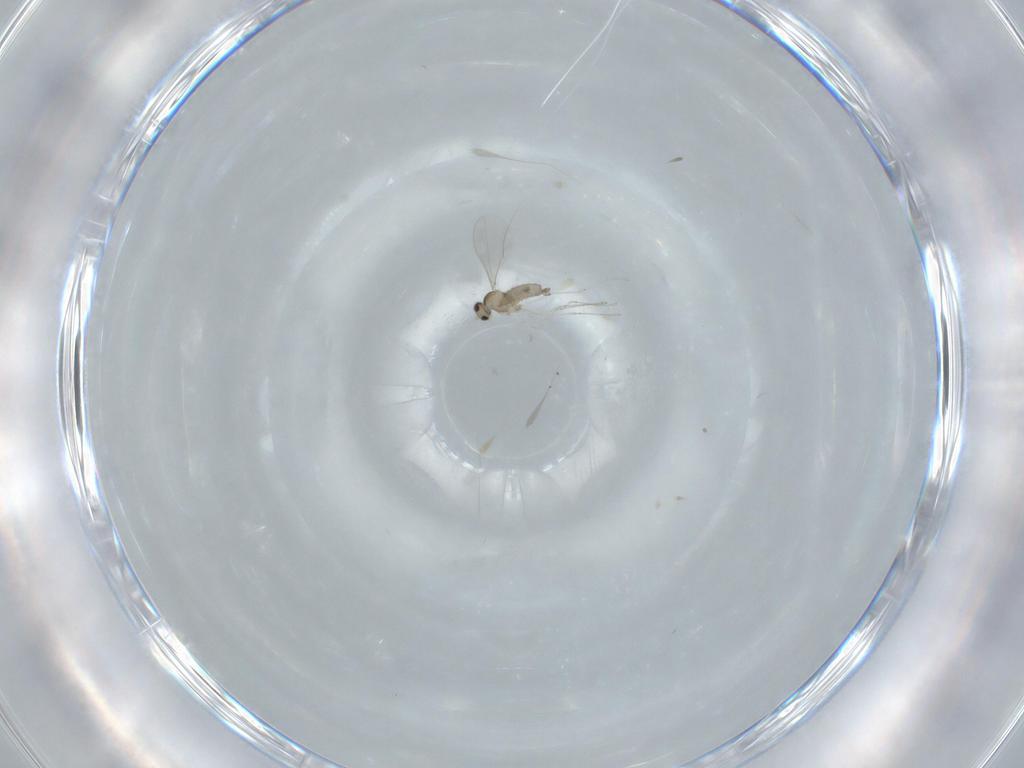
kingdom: Animalia
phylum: Arthropoda
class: Insecta
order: Diptera
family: Cecidomyiidae
